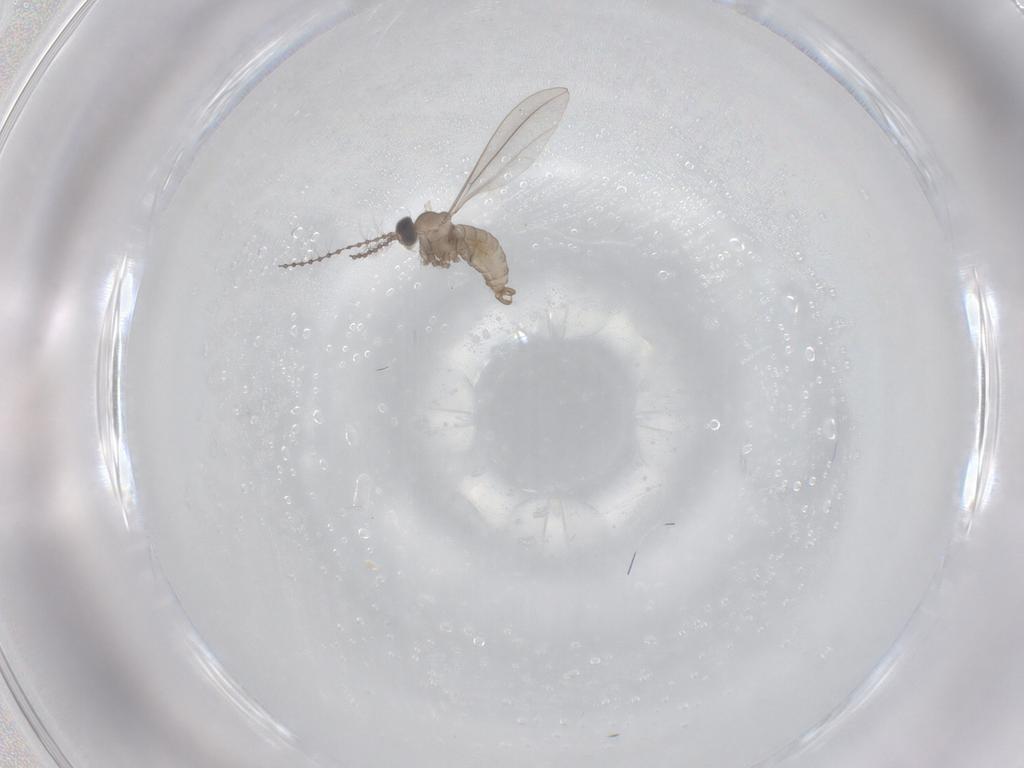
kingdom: Animalia
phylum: Arthropoda
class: Insecta
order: Diptera
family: Cecidomyiidae
